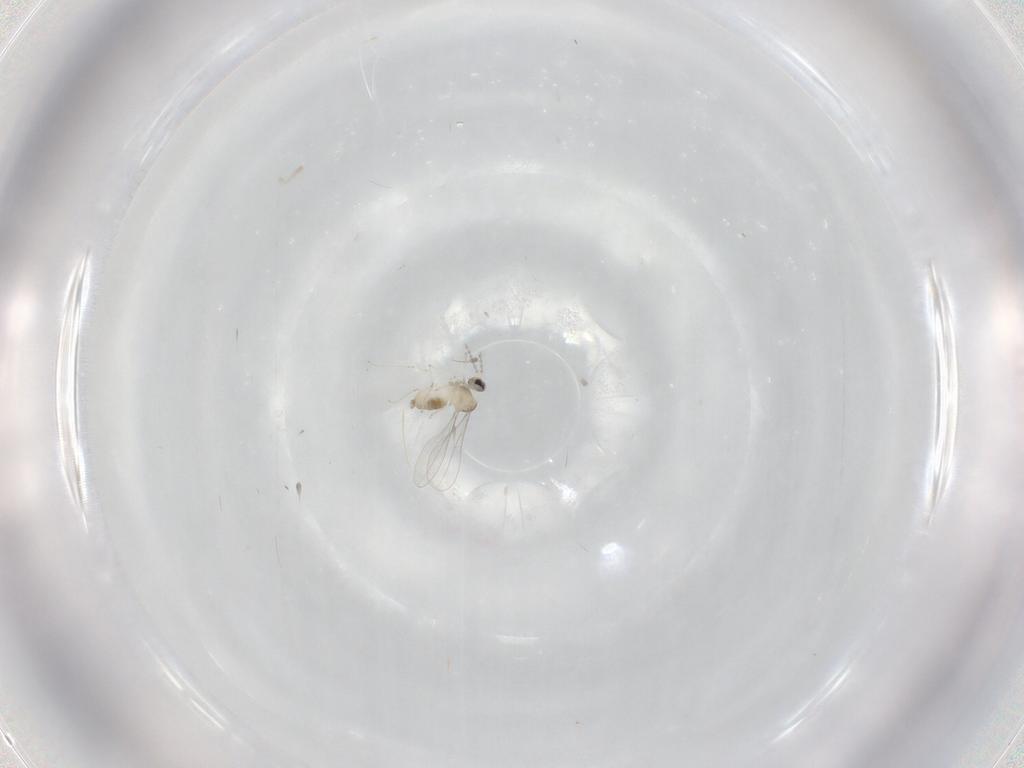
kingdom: Animalia
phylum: Arthropoda
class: Insecta
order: Diptera
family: Cecidomyiidae
